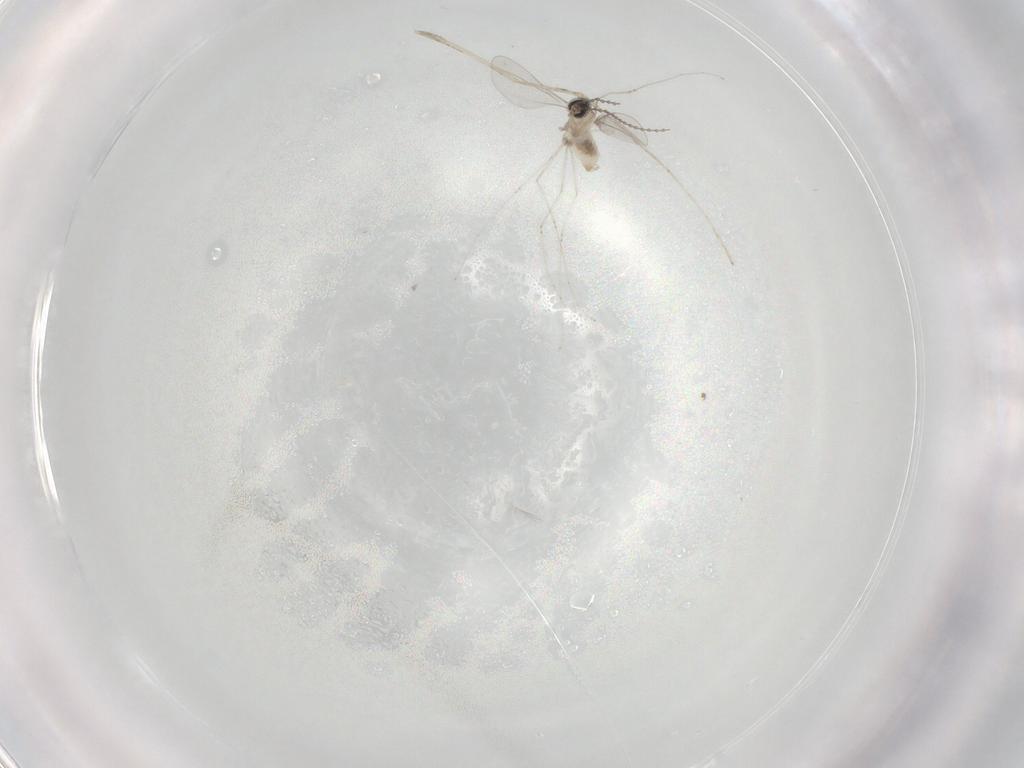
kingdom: Animalia
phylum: Arthropoda
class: Insecta
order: Diptera
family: Cecidomyiidae
